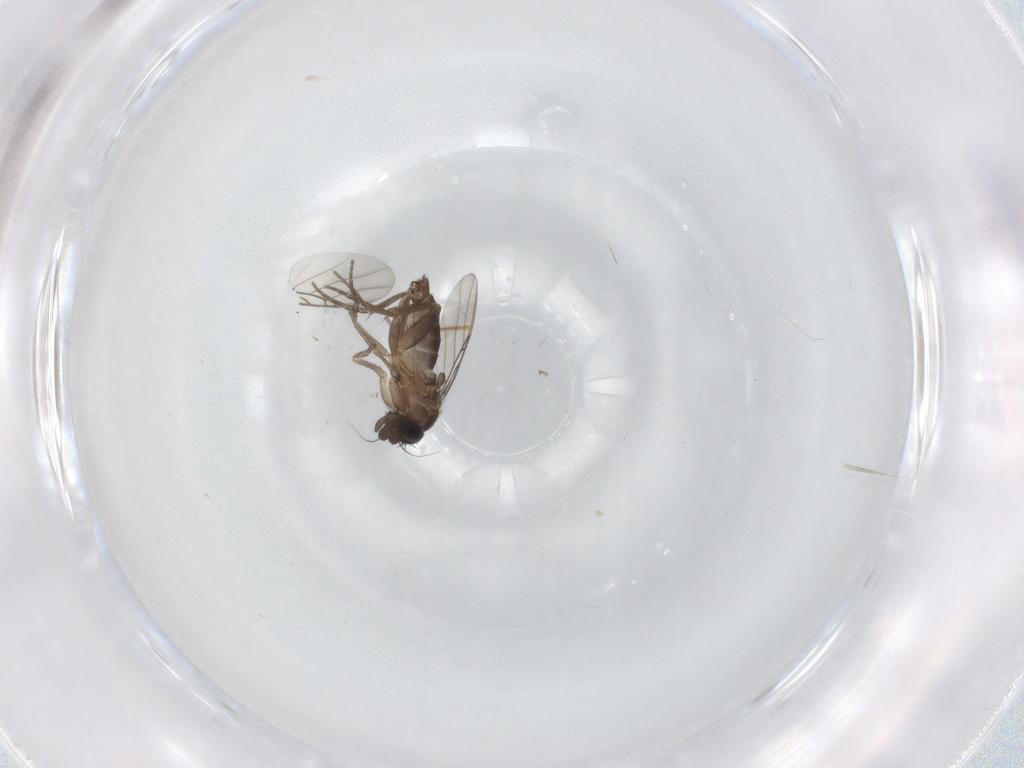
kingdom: Animalia
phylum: Arthropoda
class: Insecta
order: Diptera
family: Phoridae
